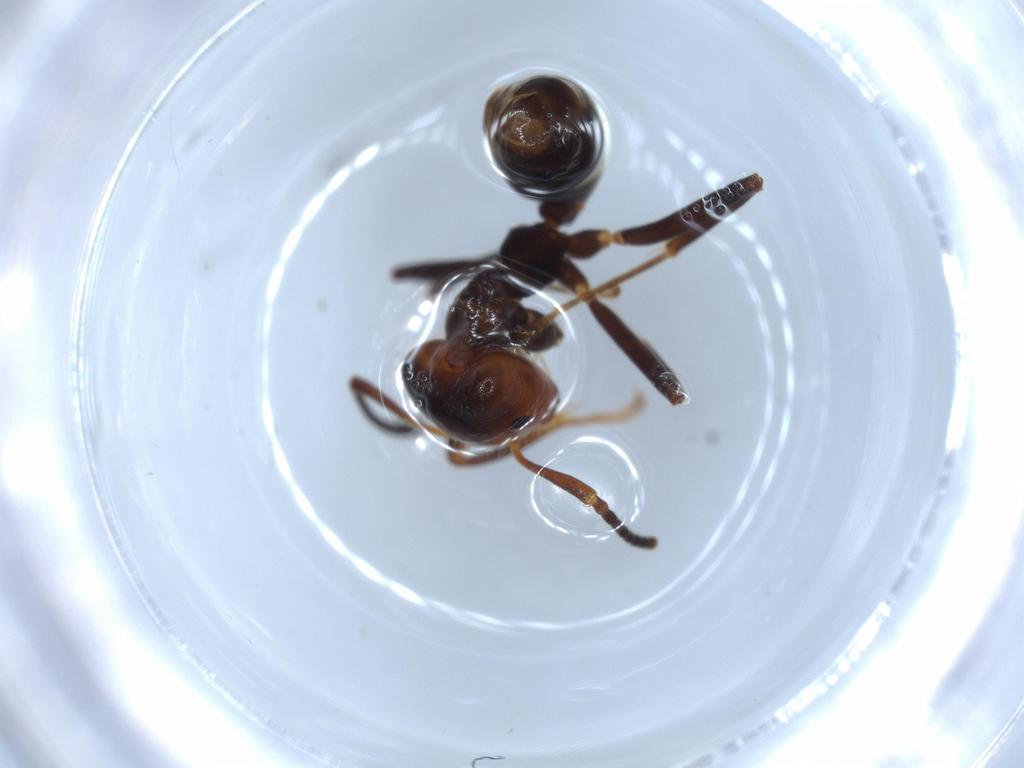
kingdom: Animalia
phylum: Arthropoda
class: Insecta
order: Hymenoptera
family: Formicidae
